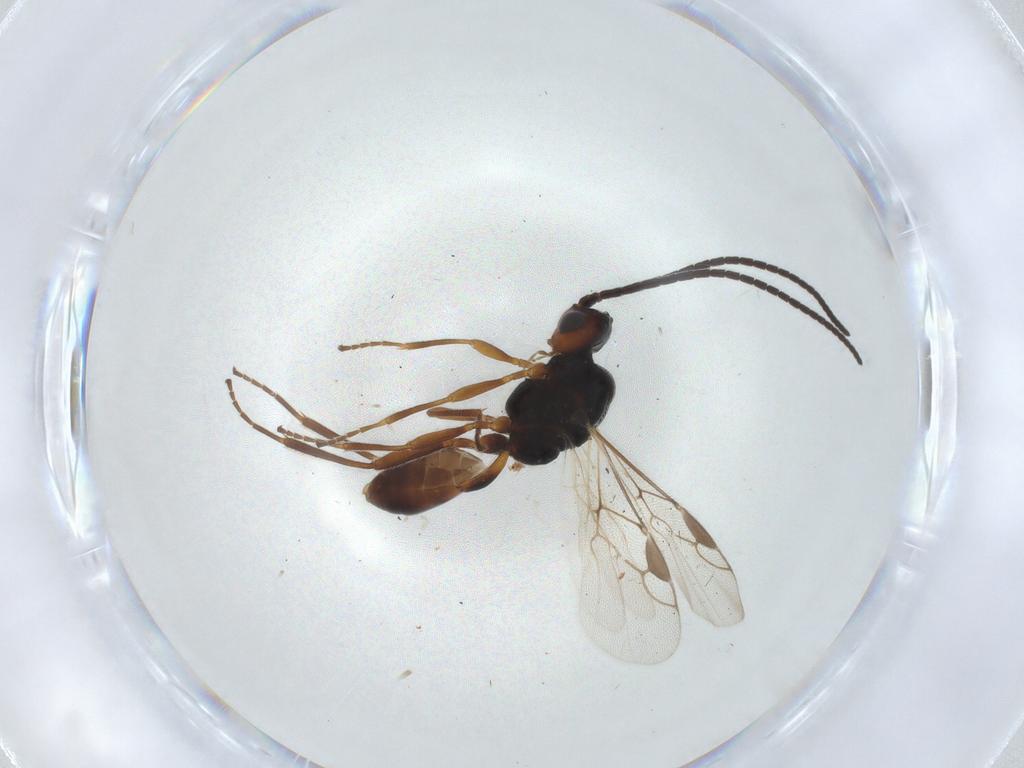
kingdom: Animalia
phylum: Arthropoda
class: Insecta
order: Hymenoptera
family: Braconidae
